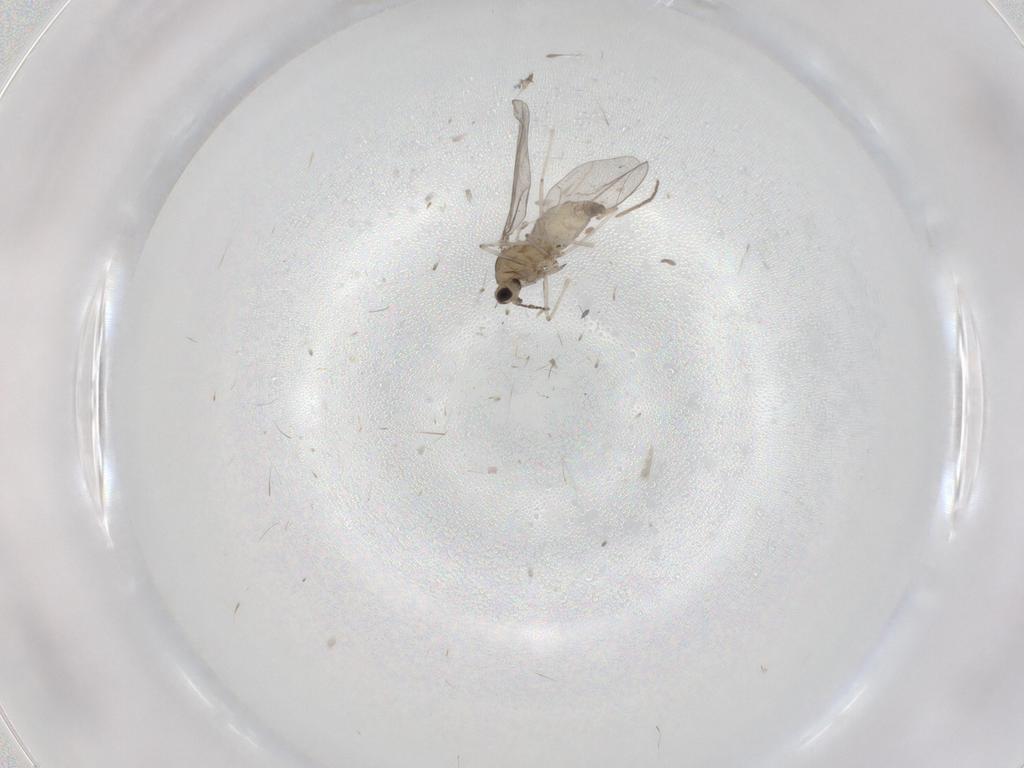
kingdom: Animalia
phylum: Arthropoda
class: Insecta
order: Diptera
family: Cecidomyiidae
